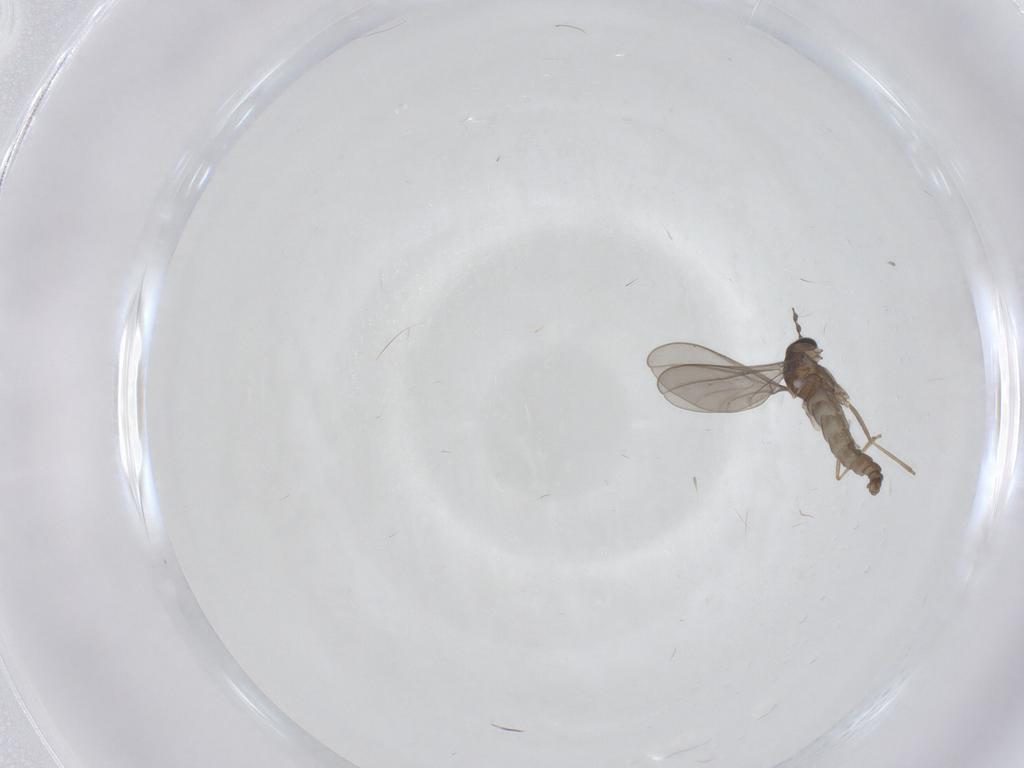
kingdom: Animalia
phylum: Arthropoda
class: Insecta
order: Diptera
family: Cecidomyiidae
